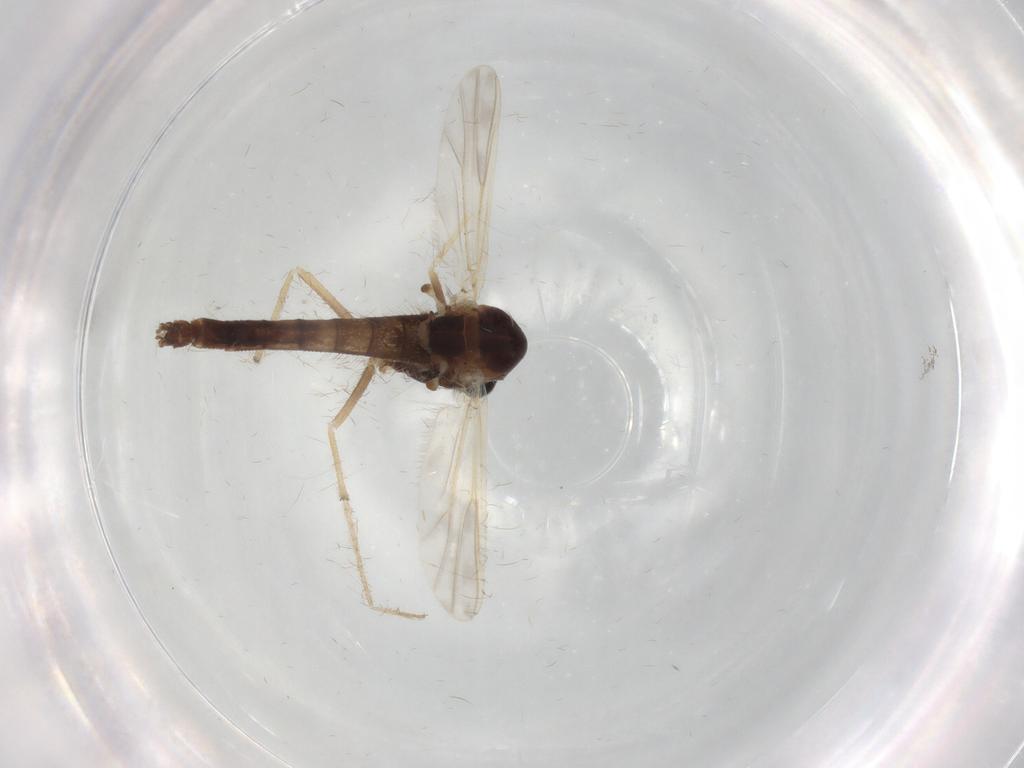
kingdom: Animalia
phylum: Arthropoda
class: Insecta
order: Diptera
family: Chironomidae
